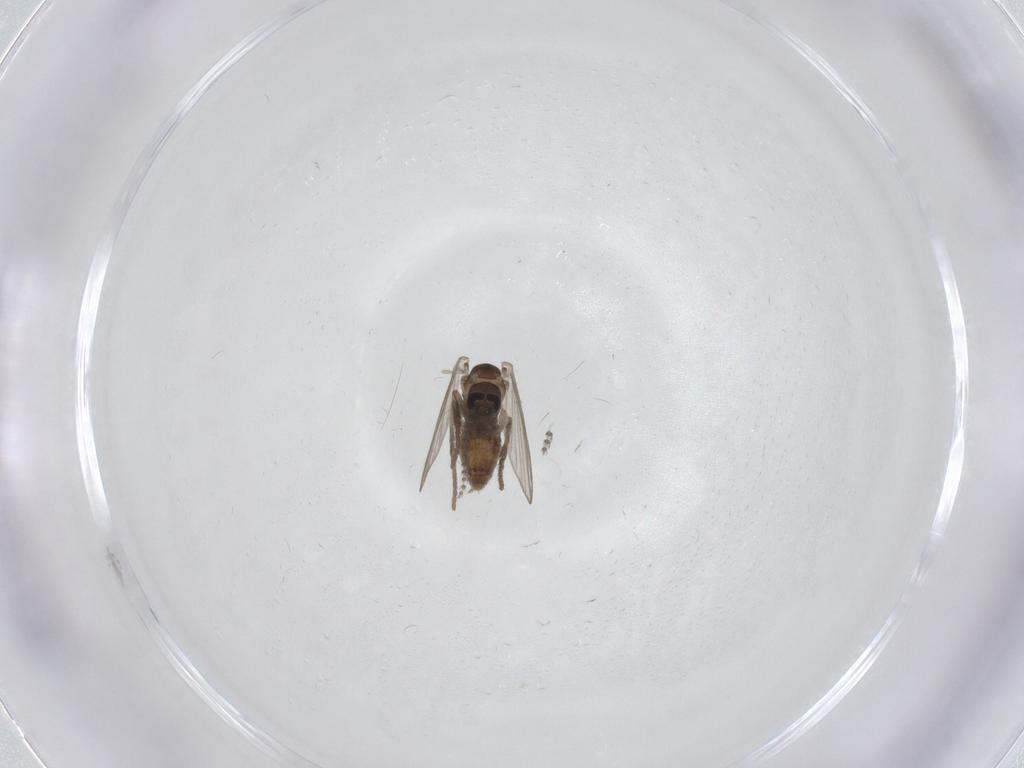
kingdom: Animalia
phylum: Arthropoda
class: Insecta
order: Diptera
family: Psychodidae
